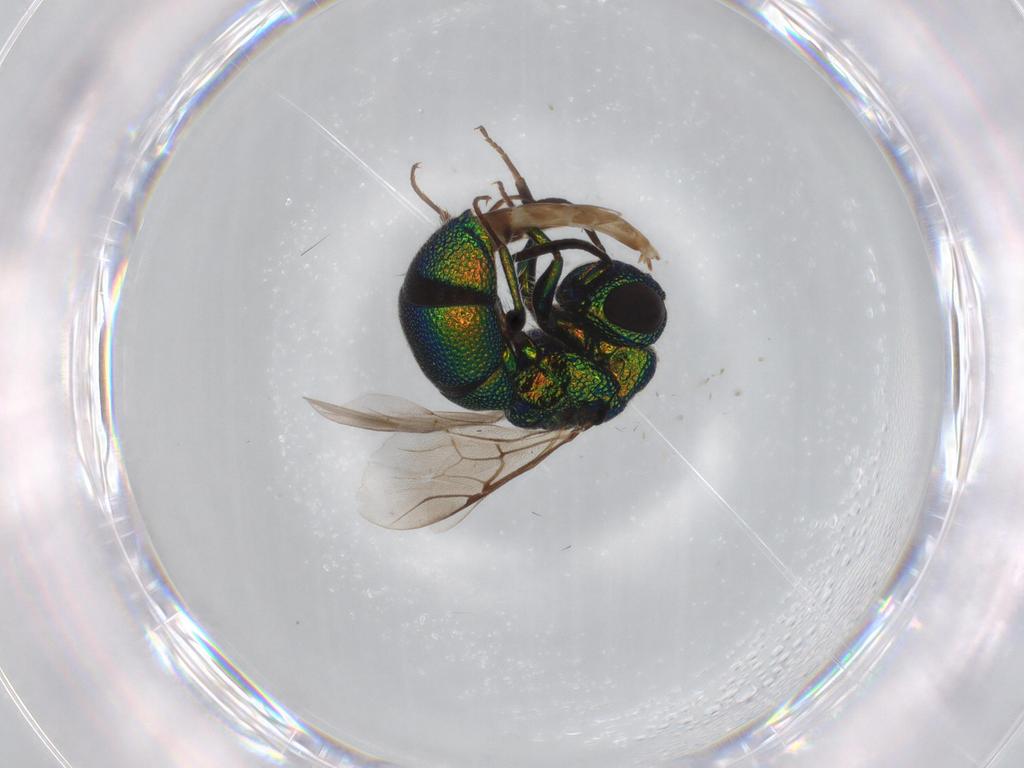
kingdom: Animalia
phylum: Arthropoda
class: Insecta
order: Hymenoptera
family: Chrysididae
